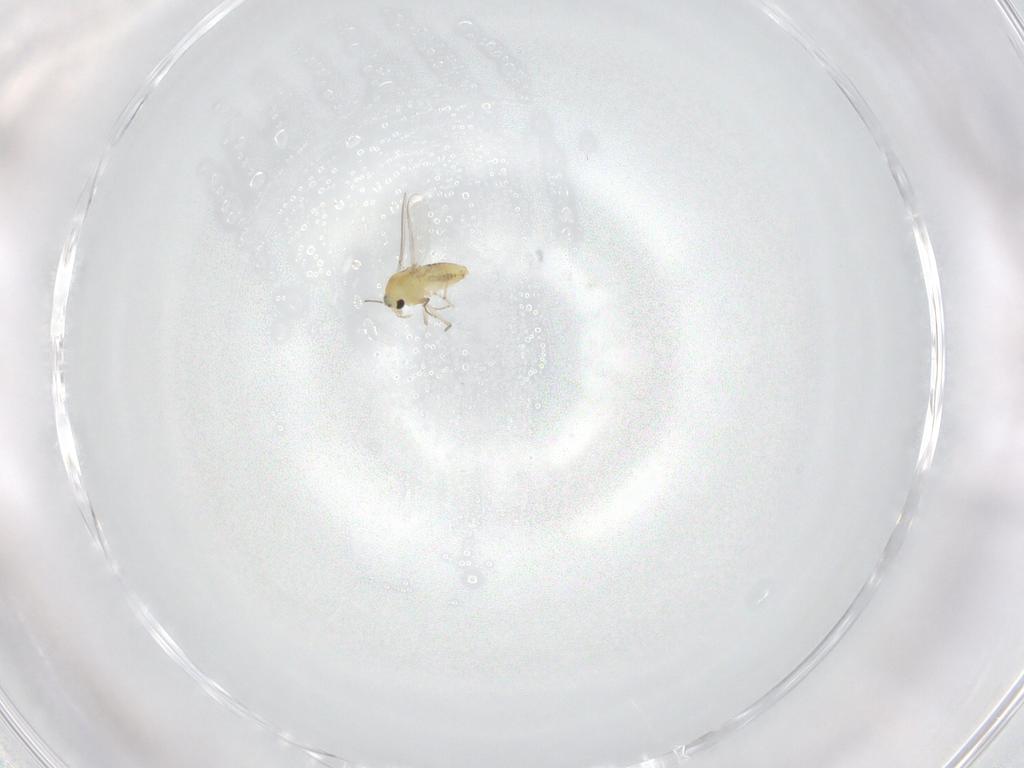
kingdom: Animalia
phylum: Arthropoda
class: Insecta
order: Diptera
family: Chironomidae
